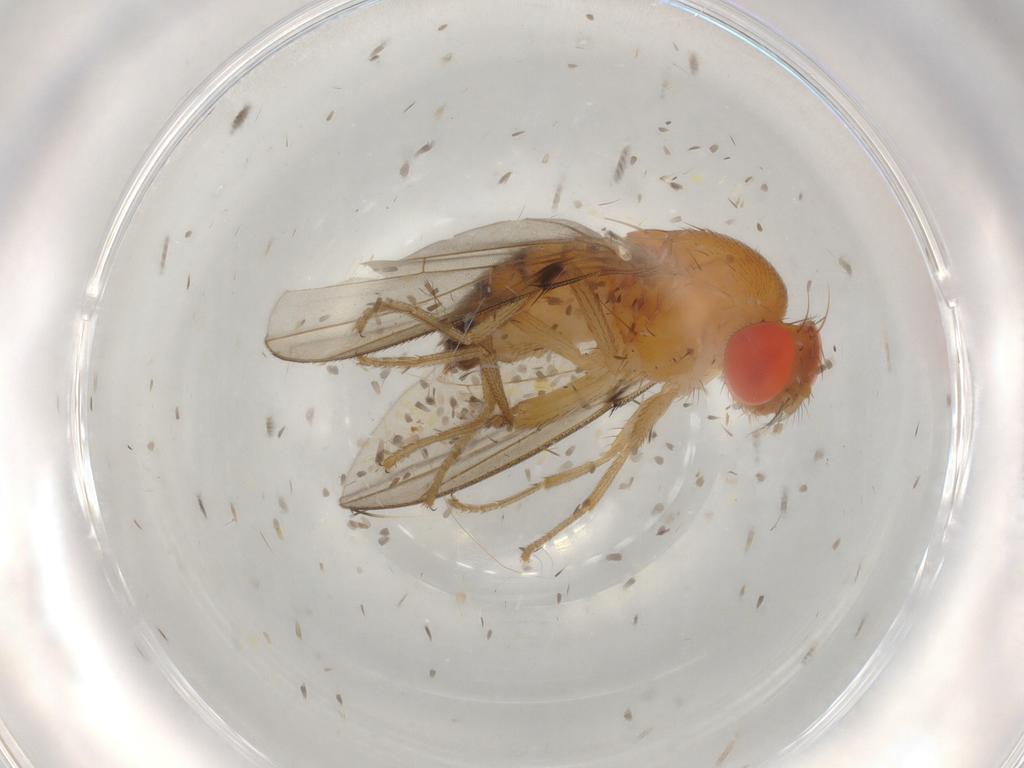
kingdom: Animalia
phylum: Arthropoda
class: Insecta
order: Diptera
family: Drosophilidae
